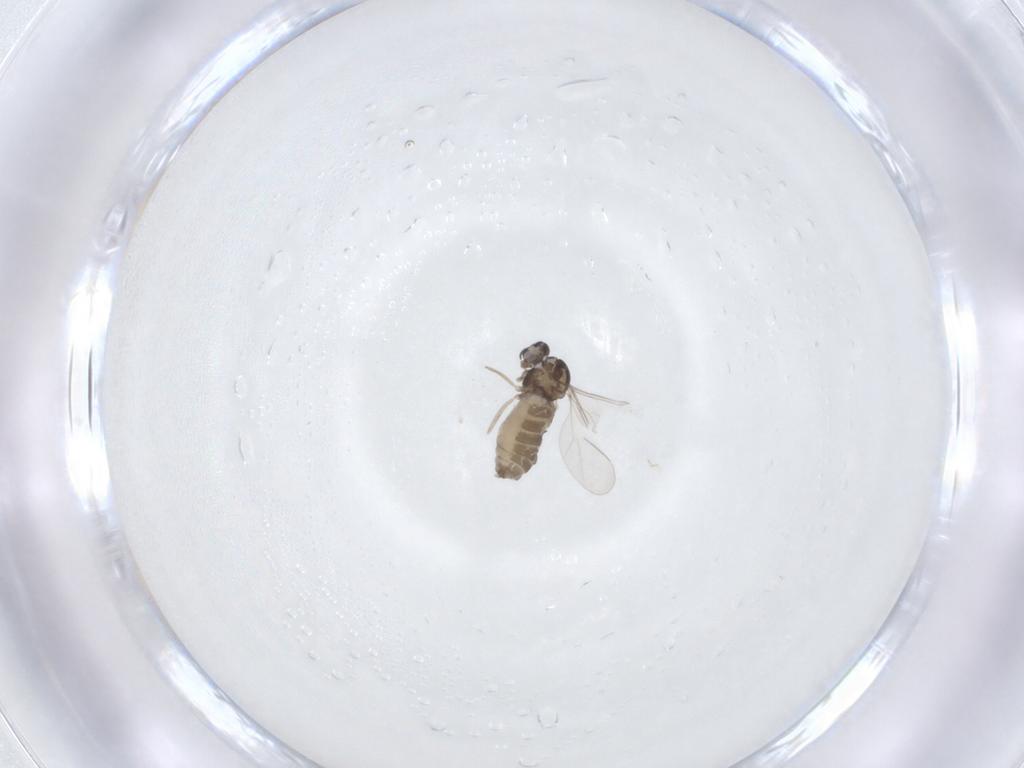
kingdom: Animalia
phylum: Arthropoda
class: Insecta
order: Diptera
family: Cecidomyiidae
